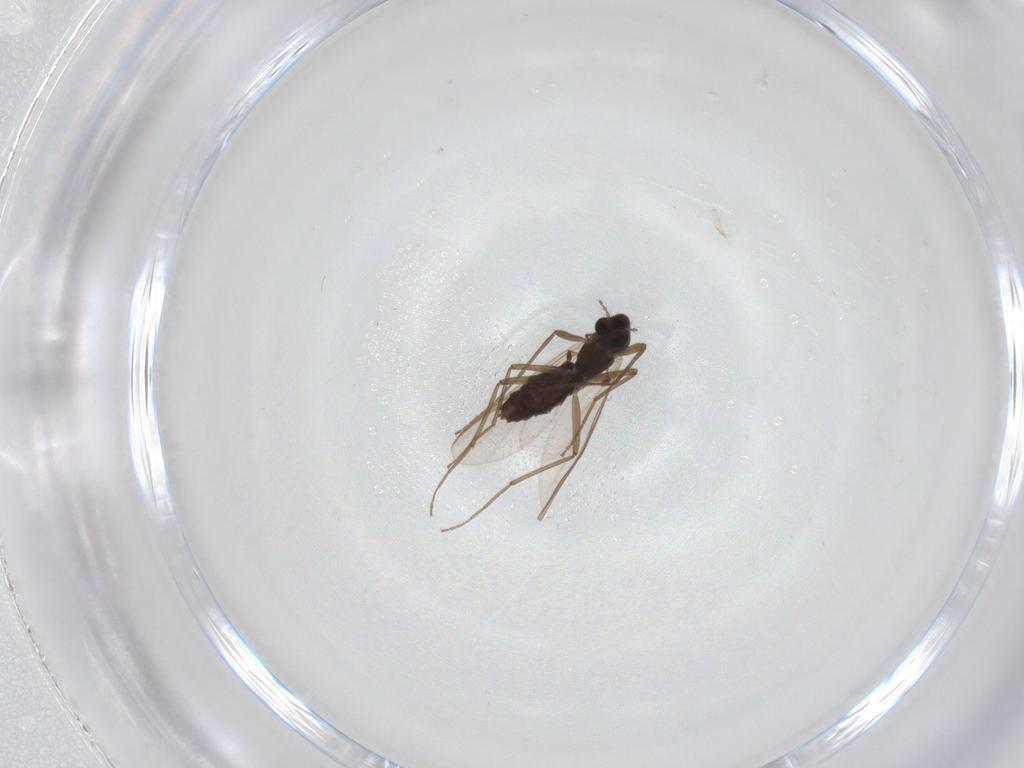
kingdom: Animalia
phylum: Arthropoda
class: Insecta
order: Diptera
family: Chironomidae
